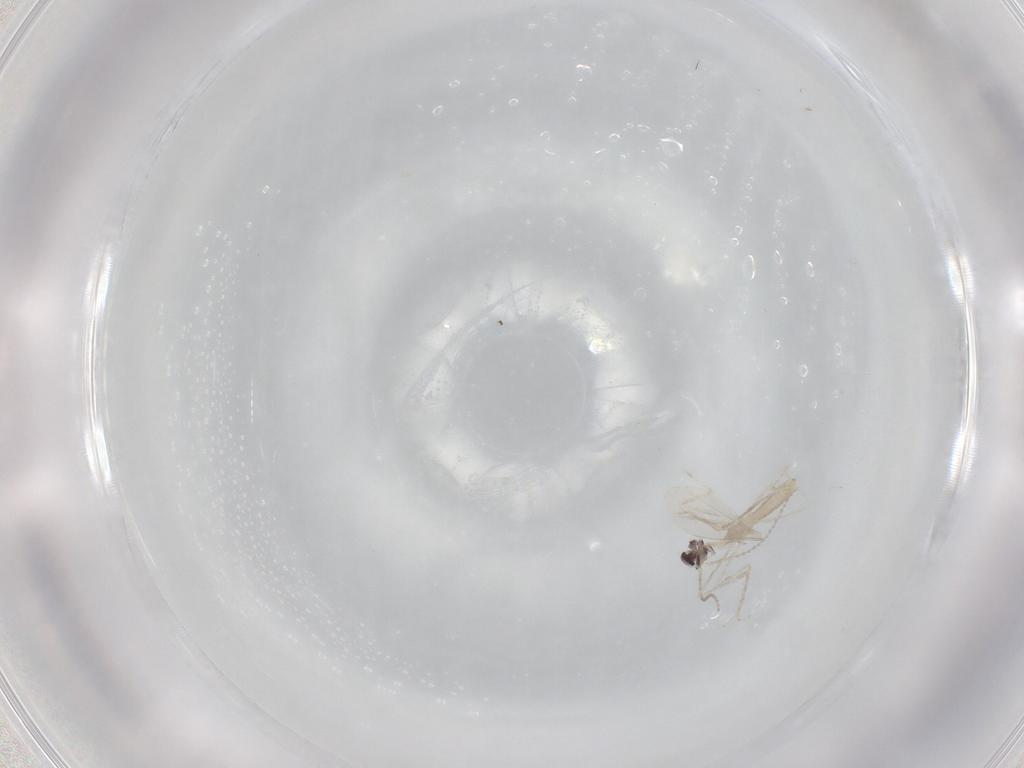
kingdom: Animalia
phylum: Arthropoda
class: Insecta
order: Diptera
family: Cecidomyiidae
